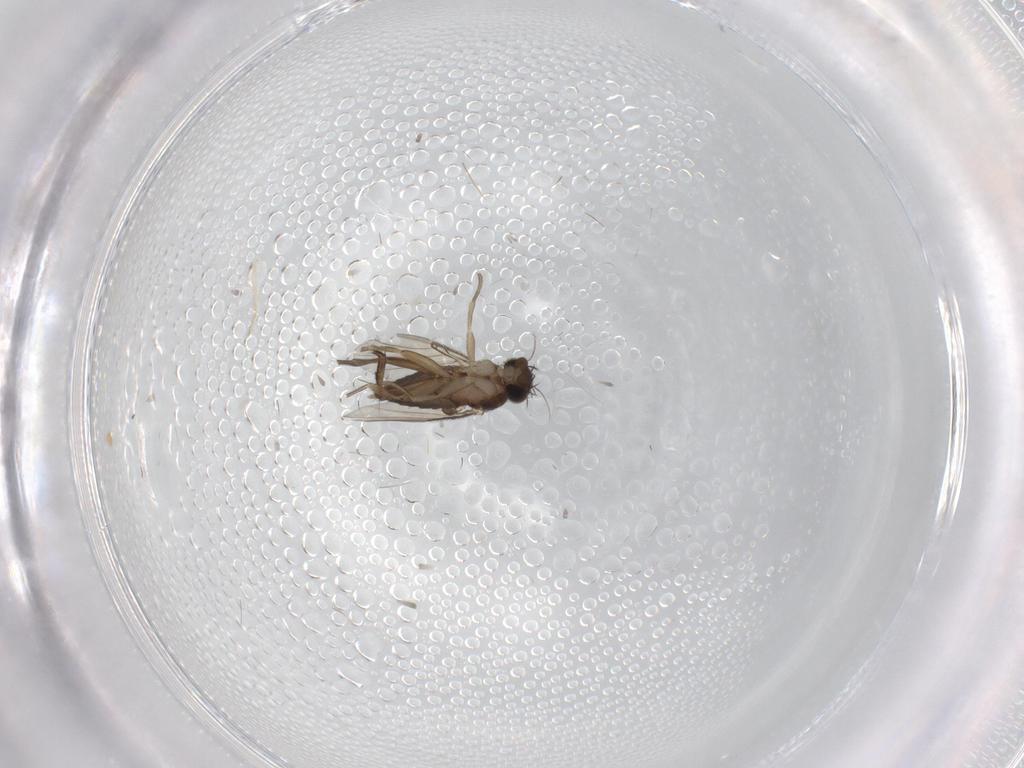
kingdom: Animalia
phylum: Arthropoda
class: Insecta
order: Diptera
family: Phoridae
